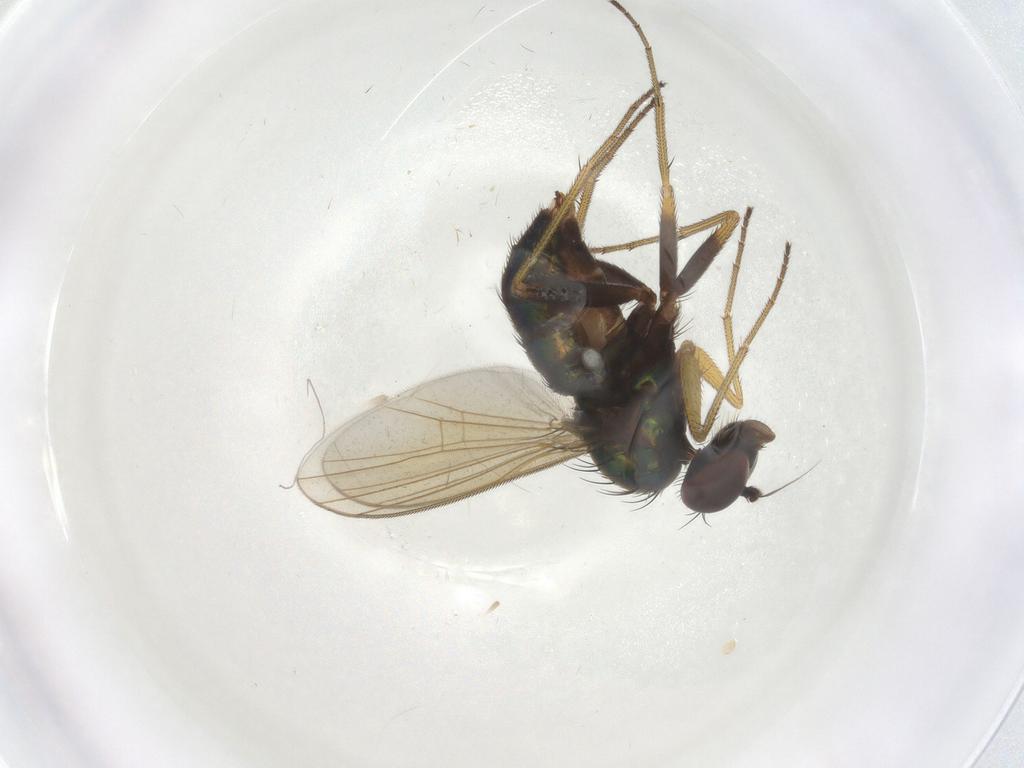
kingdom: Animalia
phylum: Arthropoda
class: Insecta
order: Diptera
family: Dolichopodidae
